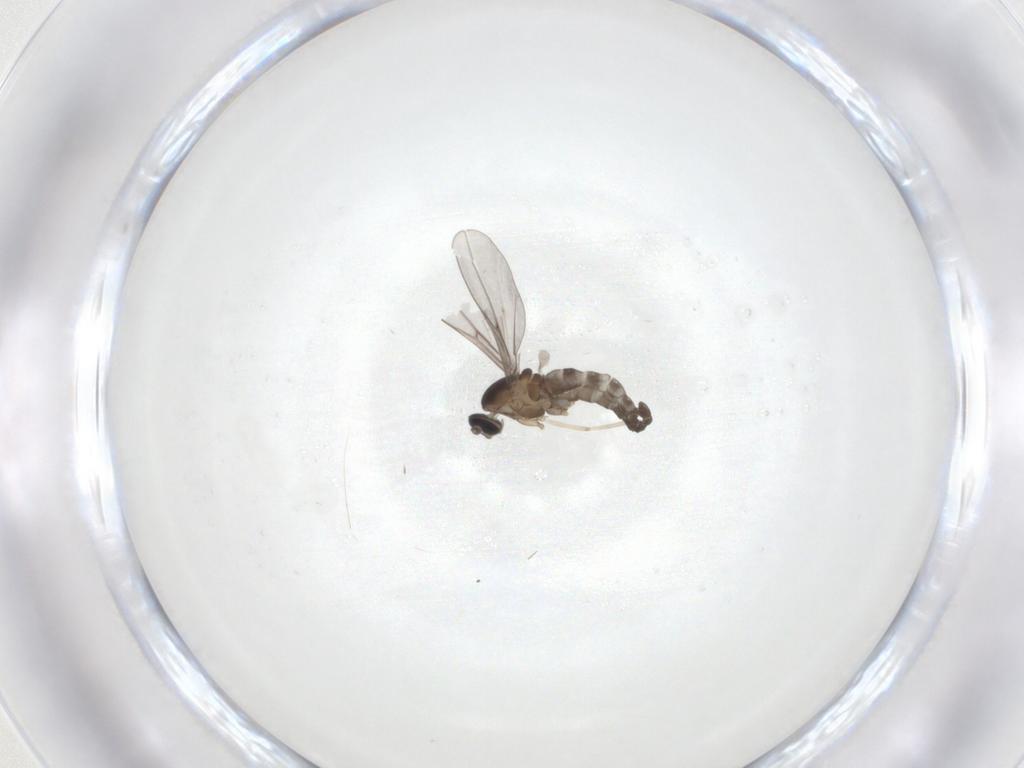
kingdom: Animalia
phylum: Arthropoda
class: Insecta
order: Diptera
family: Cecidomyiidae
